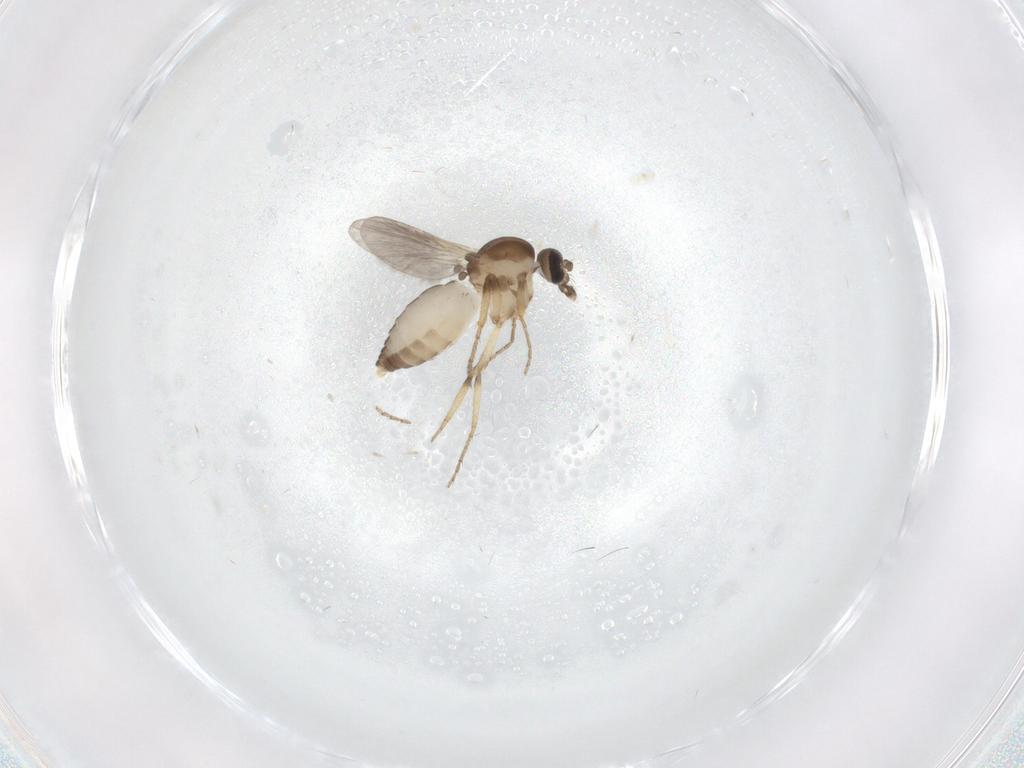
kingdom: Animalia
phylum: Arthropoda
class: Insecta
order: Diptera
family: Ceratopogonidae
